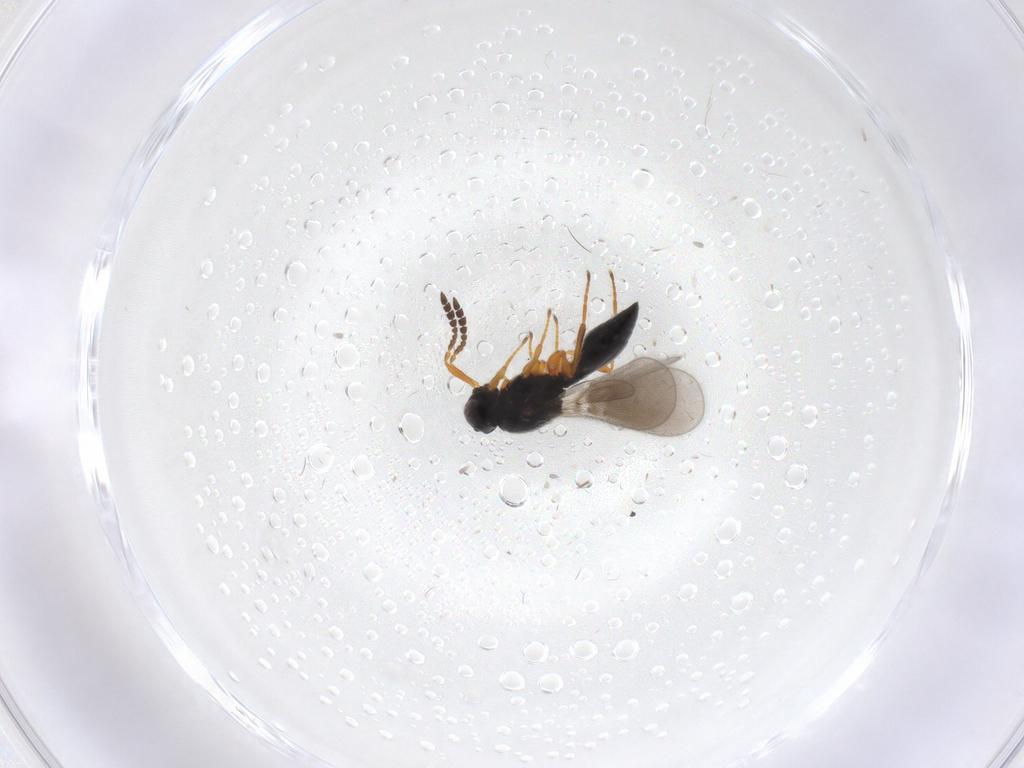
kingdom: Animalia
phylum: Arthropoda
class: Insecta
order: Hymenoptera
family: Platygastridae
